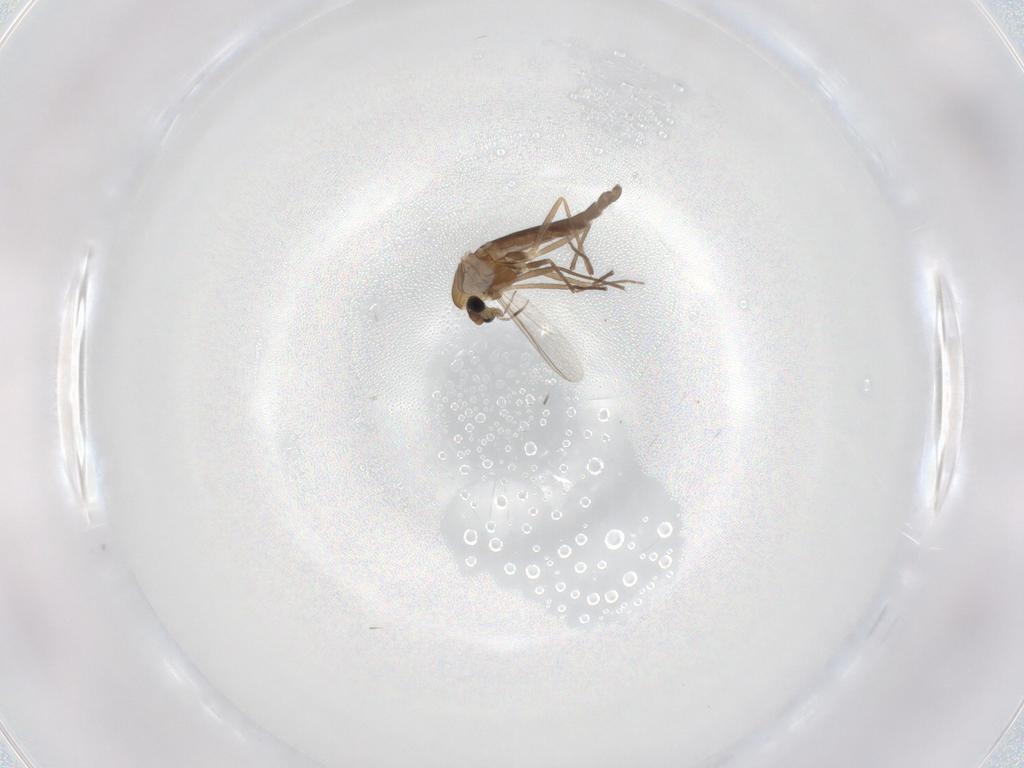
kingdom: Animalia
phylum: Arthropoda
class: Insecta
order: Diptera
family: Chironomidae
